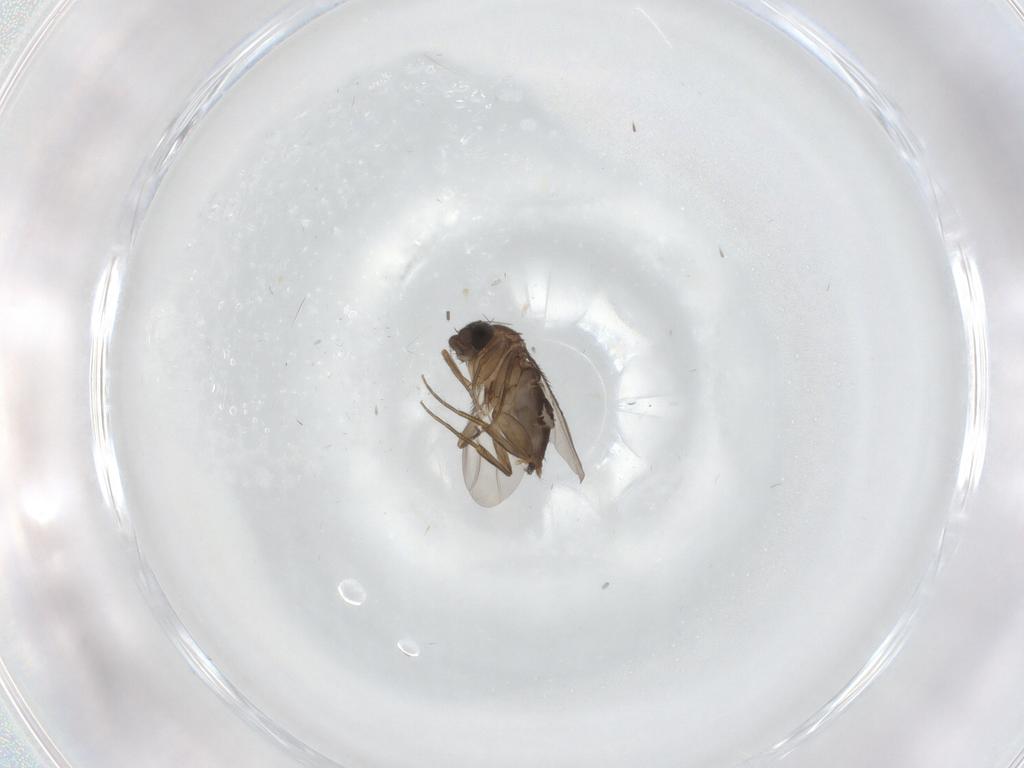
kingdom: Animalia
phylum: Arthropoda
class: Insecta
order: Diptera
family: Phoridae
